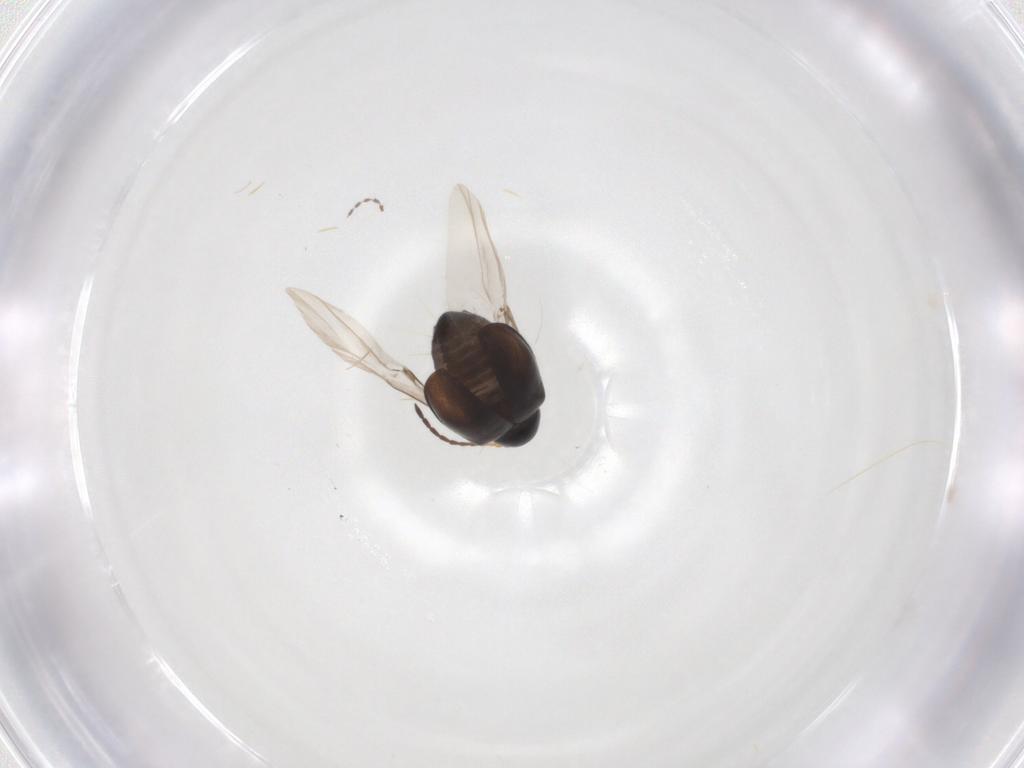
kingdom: Animalia
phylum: Arthropoda
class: Insecta
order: Coleoptera
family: Chrysomelidae
